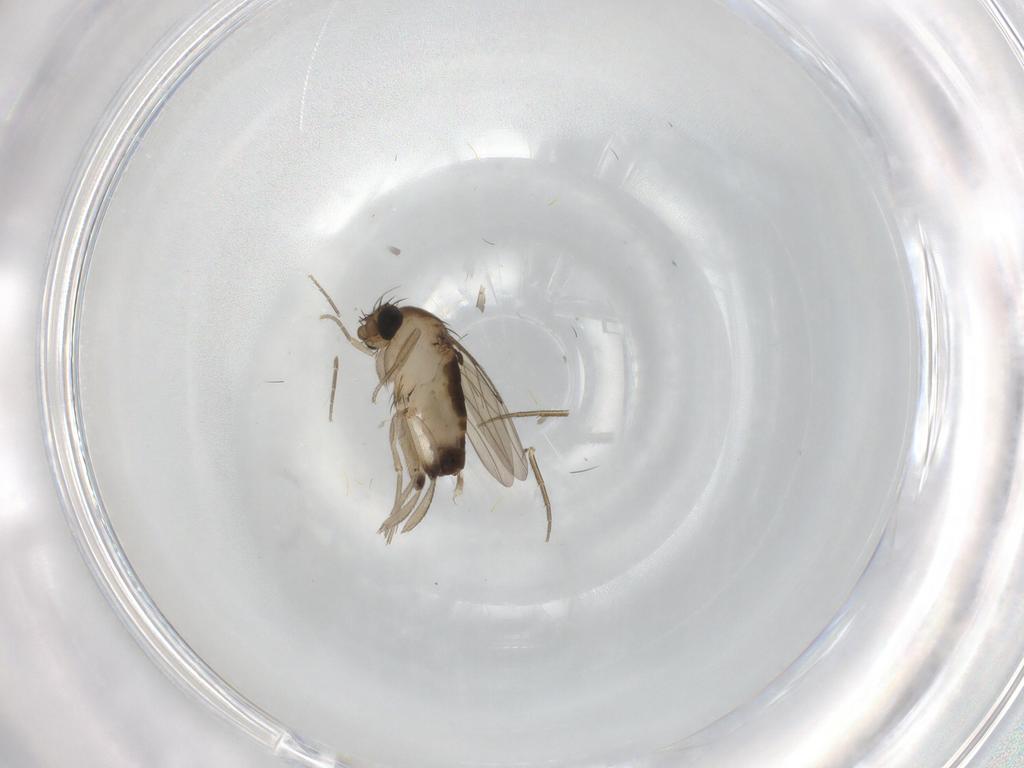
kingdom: Animalia
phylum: Arthropoda
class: Insecta
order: Diptera
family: Phoridae
